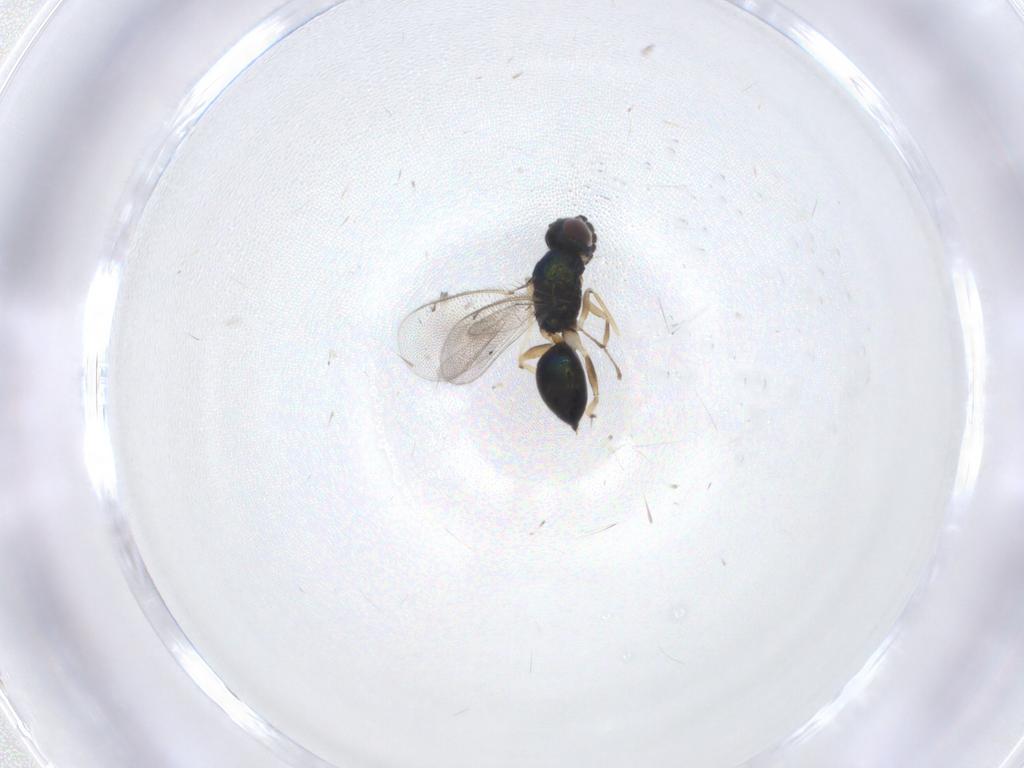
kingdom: Animalia
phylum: Arthropoda
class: Insecta
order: Hymenoptera
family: Eulophidae
